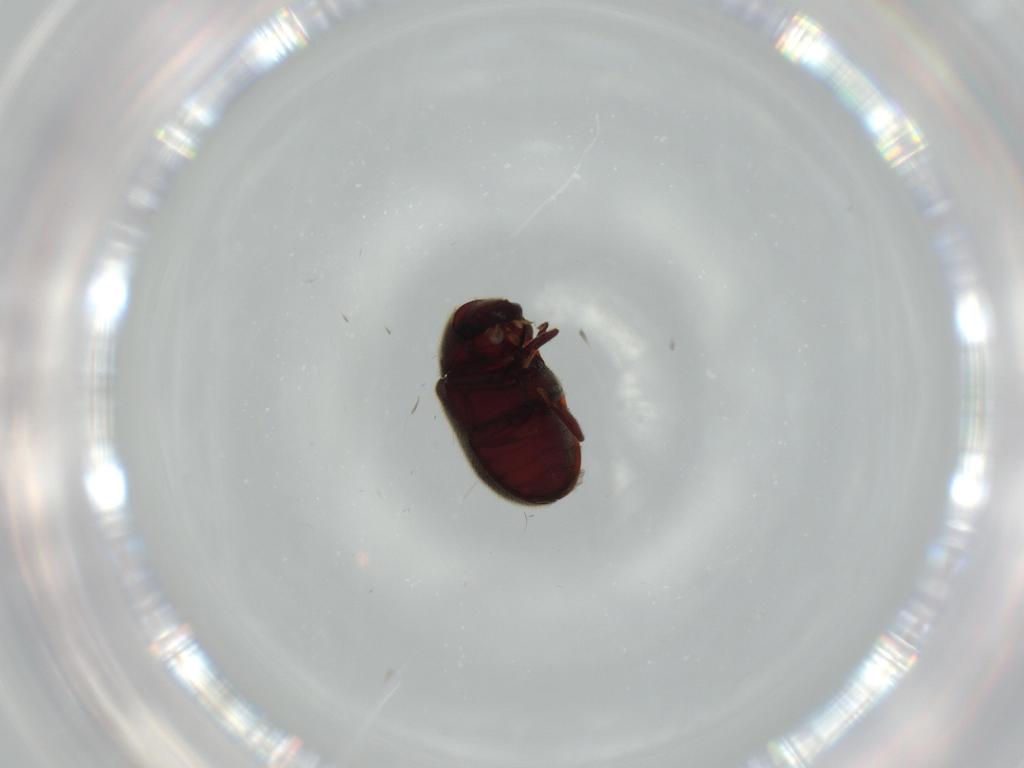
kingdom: Animalia
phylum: Arthropoda
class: Insecta
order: Coleoptera
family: Ptinidae
